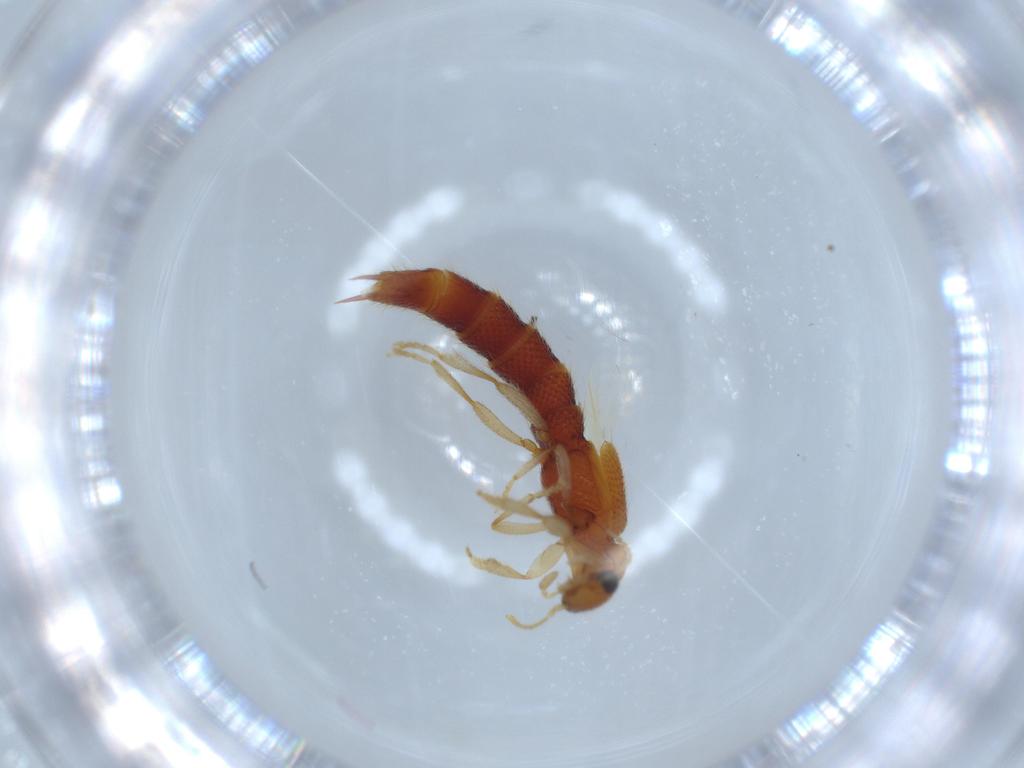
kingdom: Animalia
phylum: Arthropoda
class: Insecta
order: Coleoptera
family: Staphylinidae
